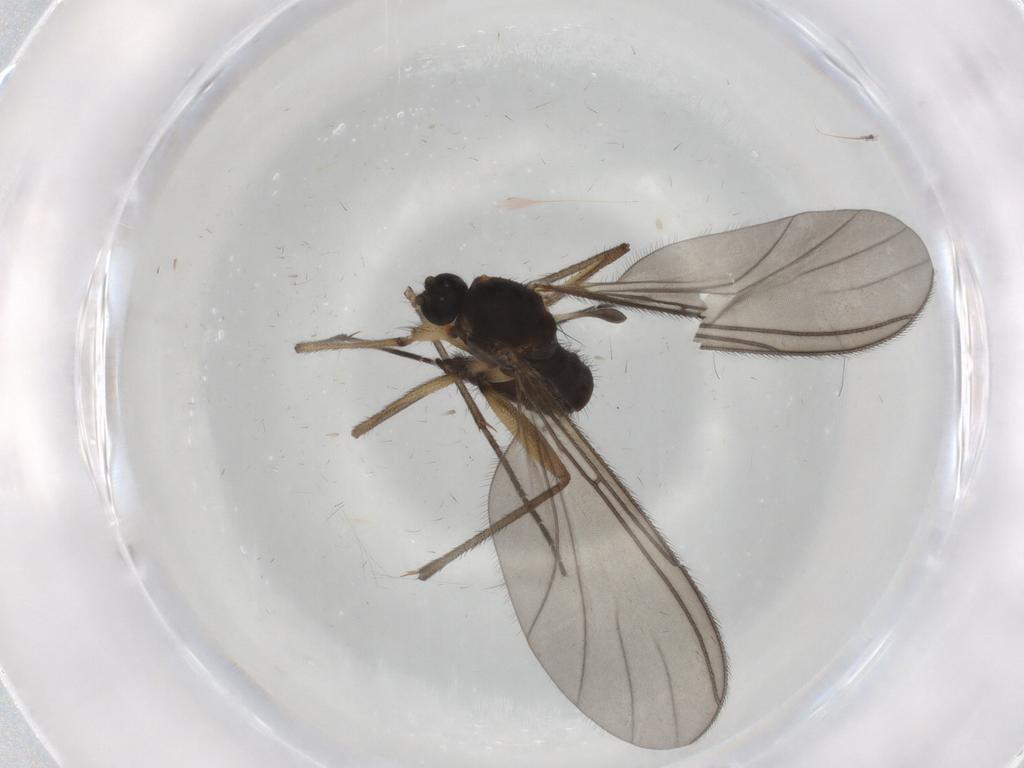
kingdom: Animalia
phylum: Arthropoda
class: Insecta
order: Diptera
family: Sciaridae
